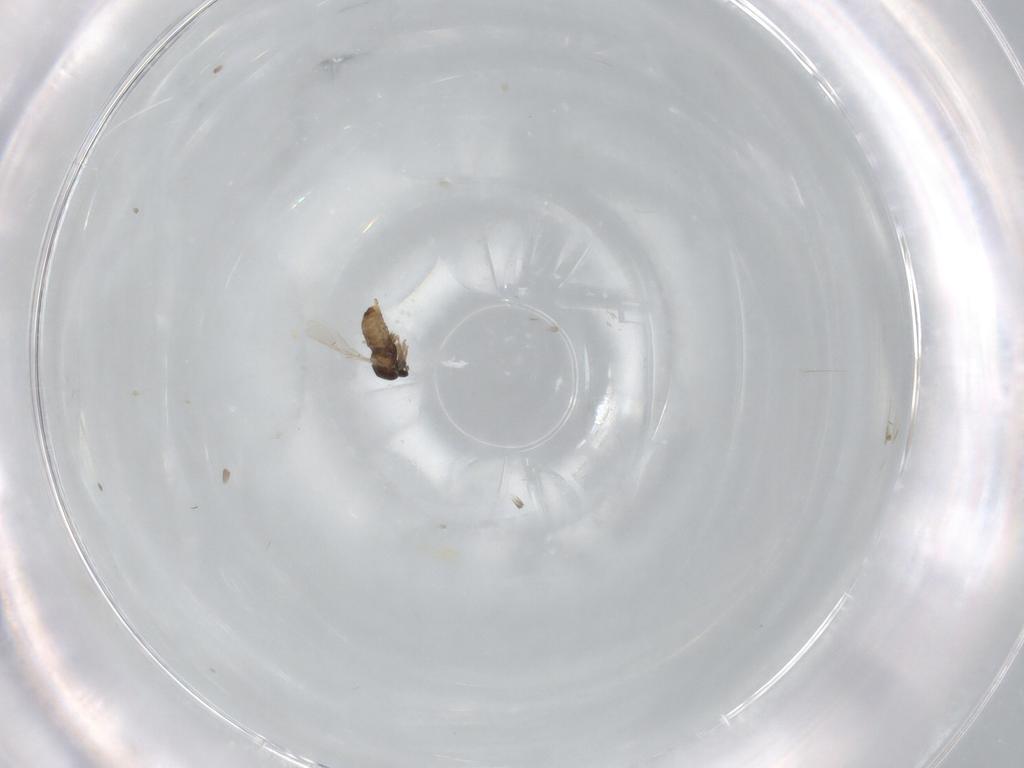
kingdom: Animalia
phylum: Arthropoda
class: Insecta
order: Diptera
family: Cecidomyiidae
